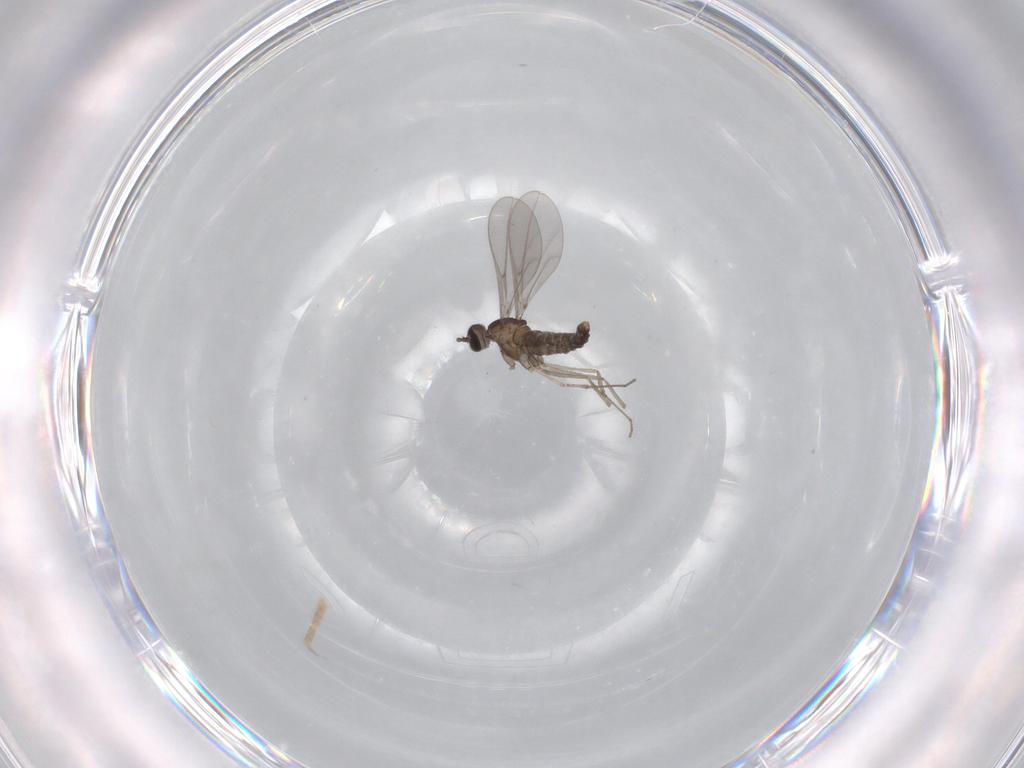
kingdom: Animalia
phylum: Arthropoda
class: Insecta
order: Diptera
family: Cecidomyiidae
